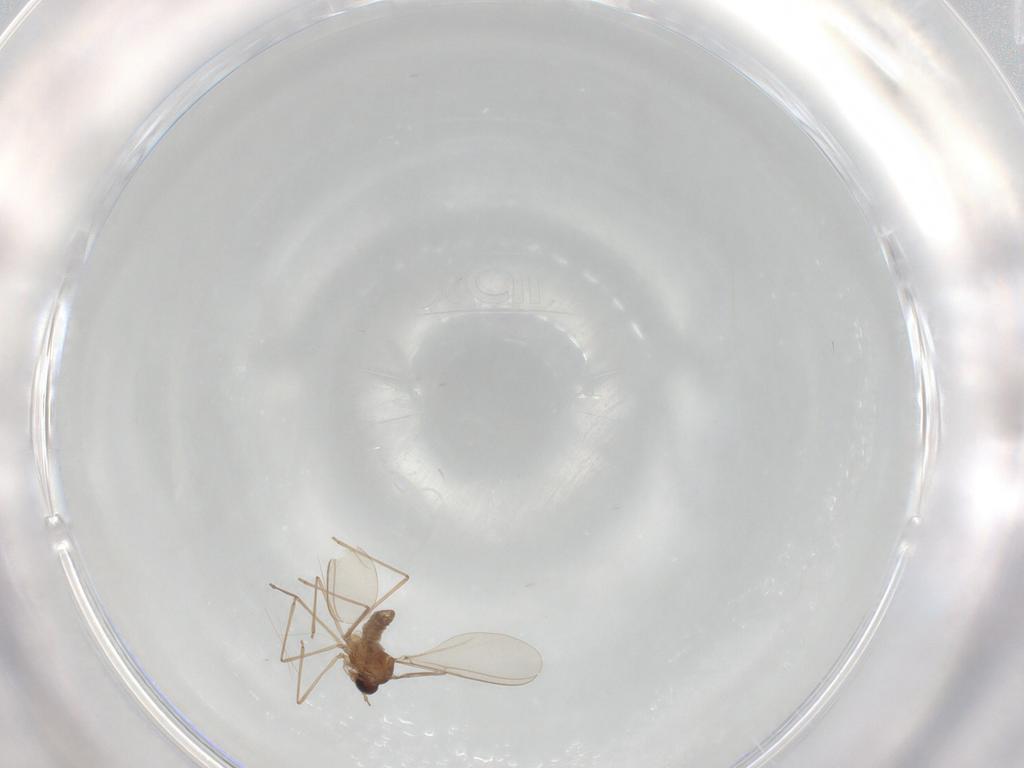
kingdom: Animalia
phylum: Arthropoda
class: Insecta
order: Diptera
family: Cecidomyiidae
